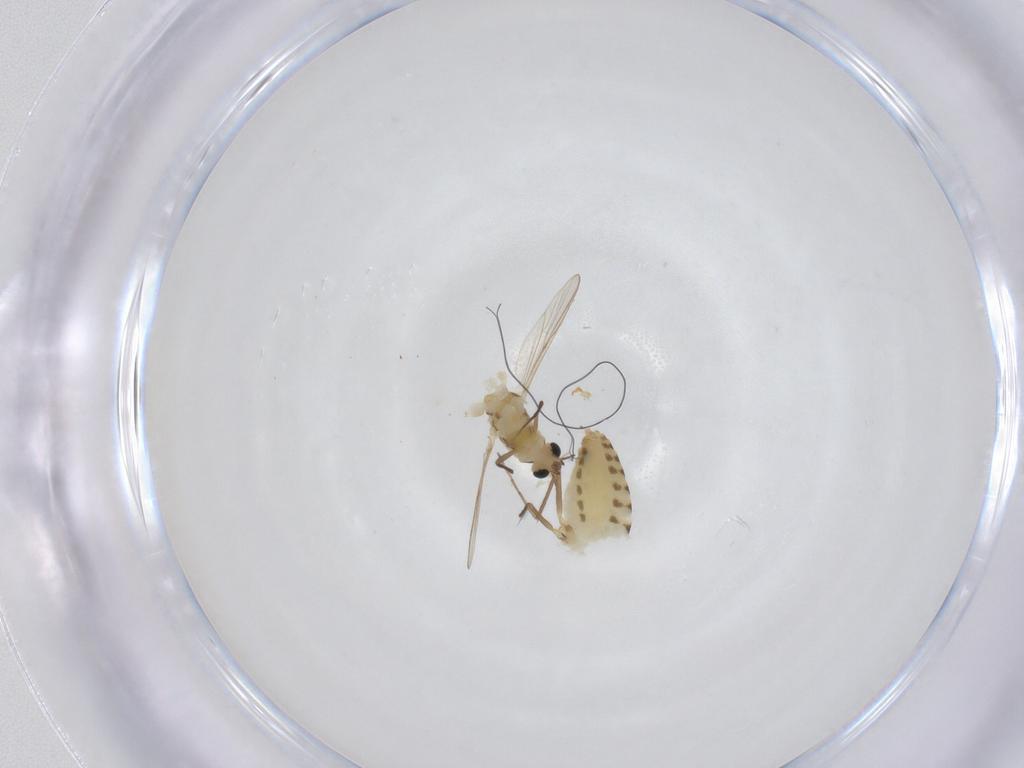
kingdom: Animalia
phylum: Arthropoda
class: Insecta
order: Diptera
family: Chironomidae
